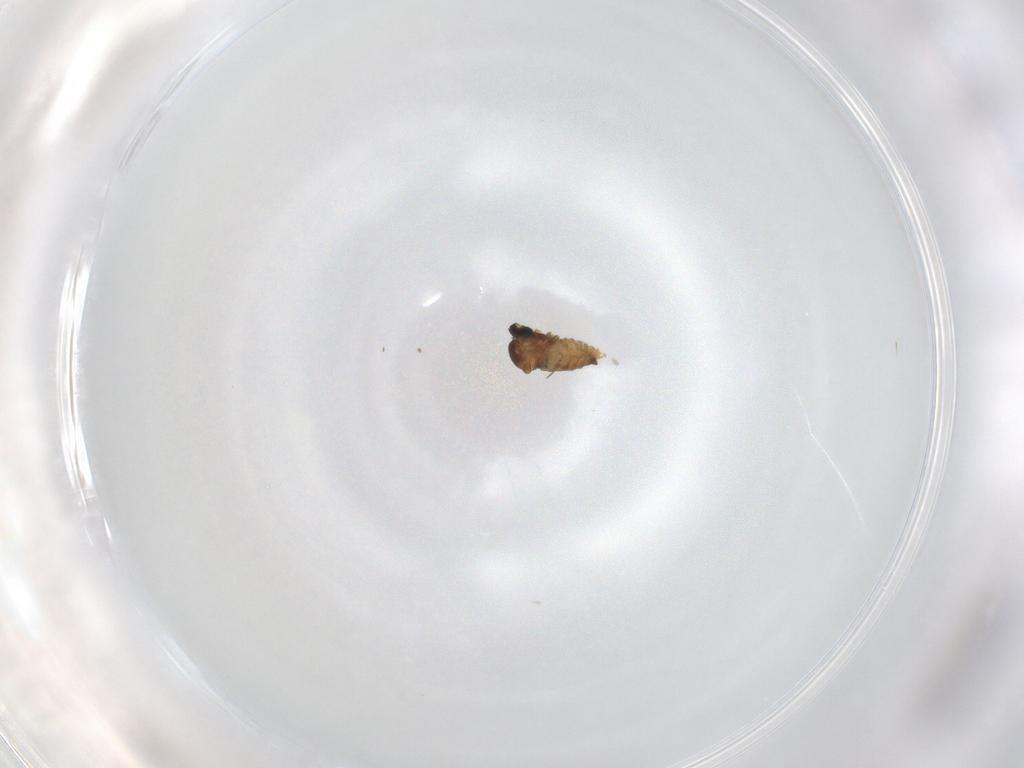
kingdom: Animalia
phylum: Arthropoda
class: Insecta
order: Diptera
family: Cecidomyiidae
